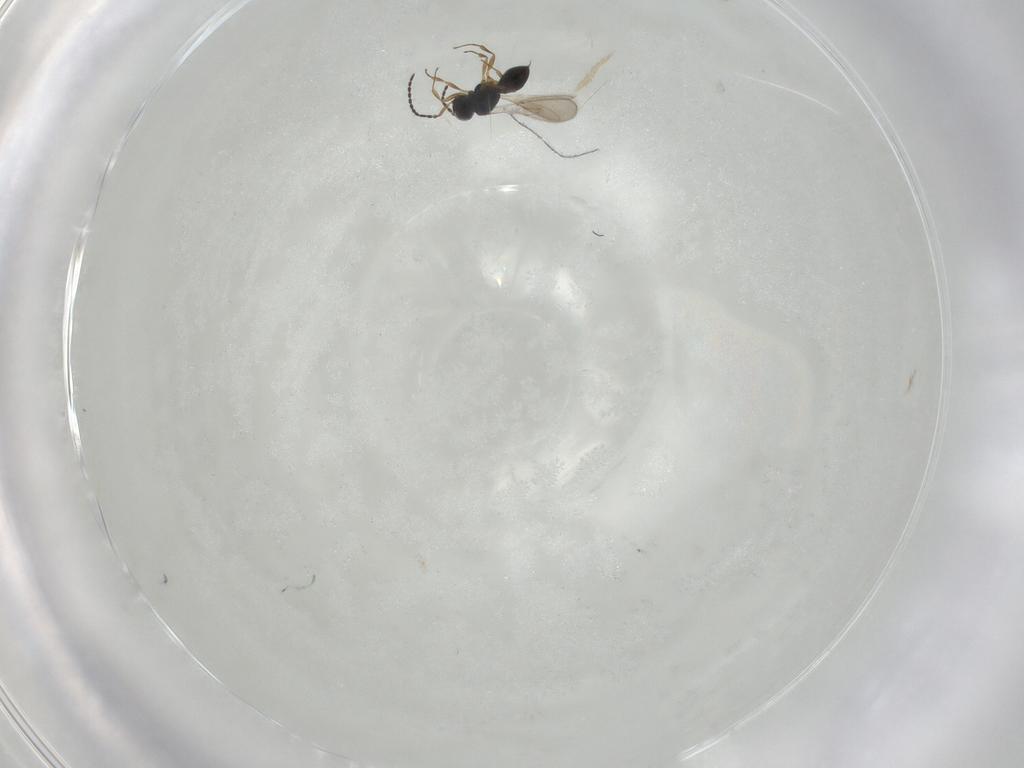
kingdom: Animalia
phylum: Arthropoda
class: Insecta
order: Hymenoptera
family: Scelionidae
